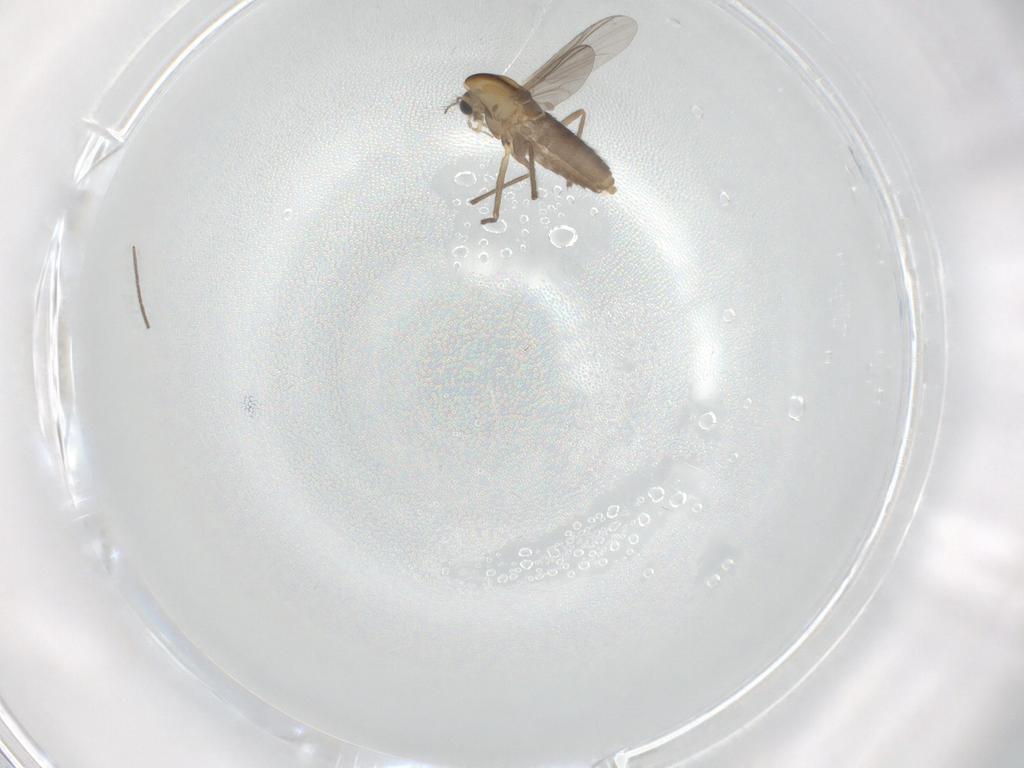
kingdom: Animalia
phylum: Arthropoda
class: Insecta
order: Diptera
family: Chironomidae
